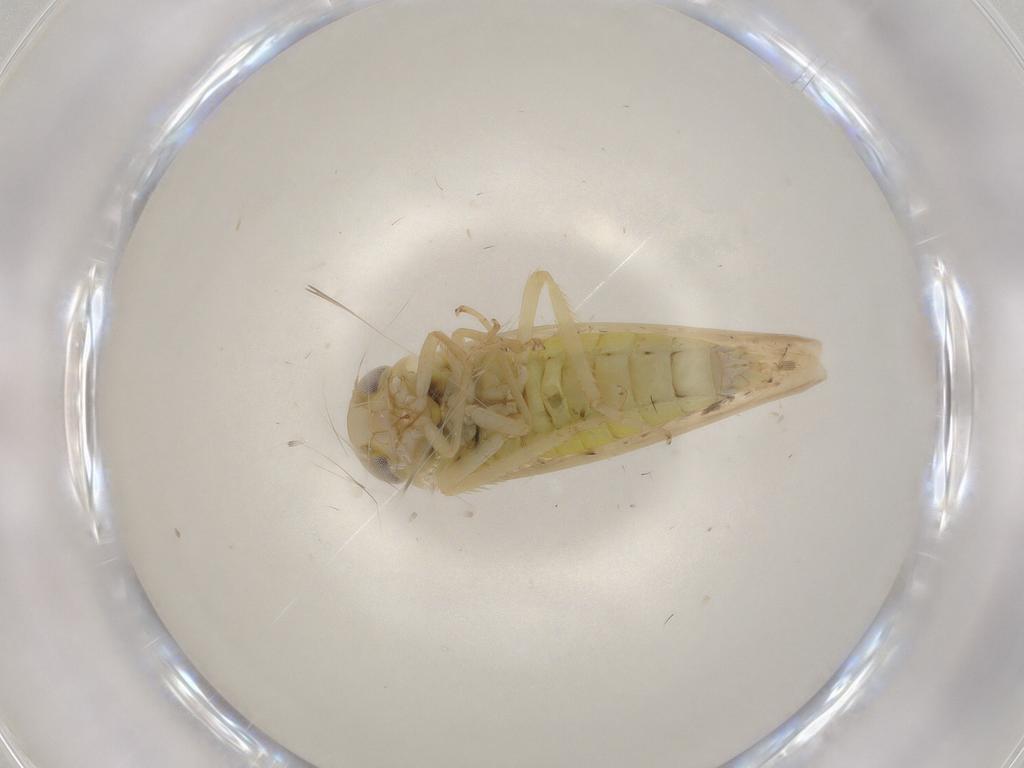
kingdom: Animalia
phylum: Arthropoda
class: Insecta
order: Hemiptera
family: Cicadellidae
